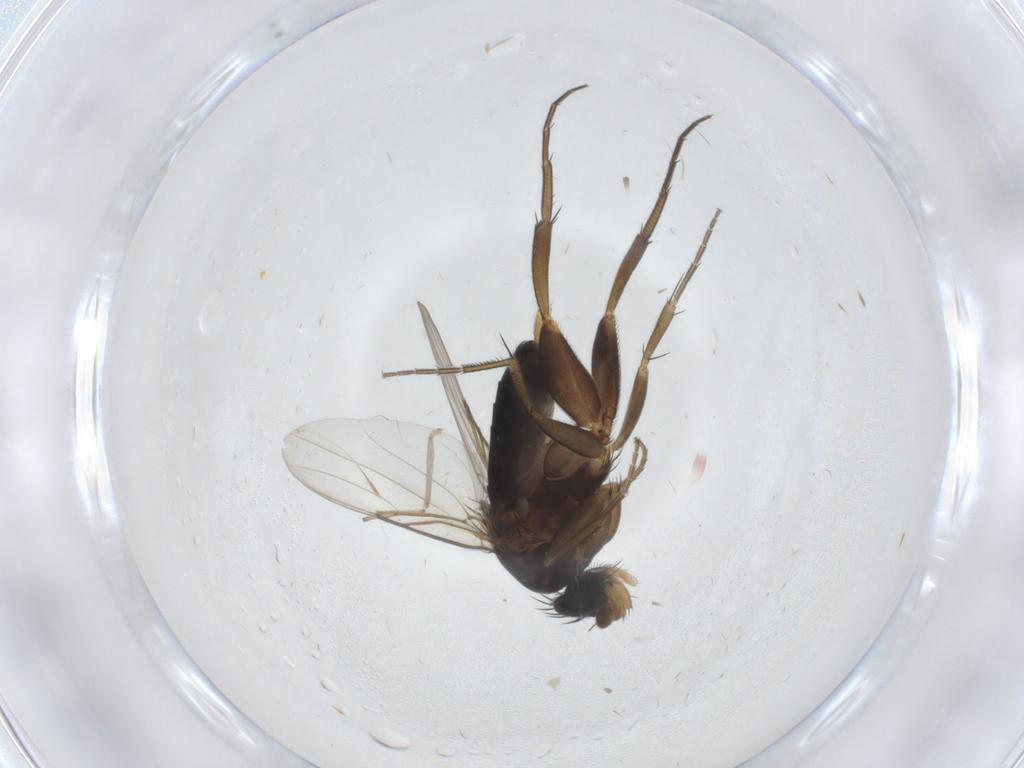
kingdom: Animalia
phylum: Arthropoda
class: Insecta
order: Diptera
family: Phoridae
